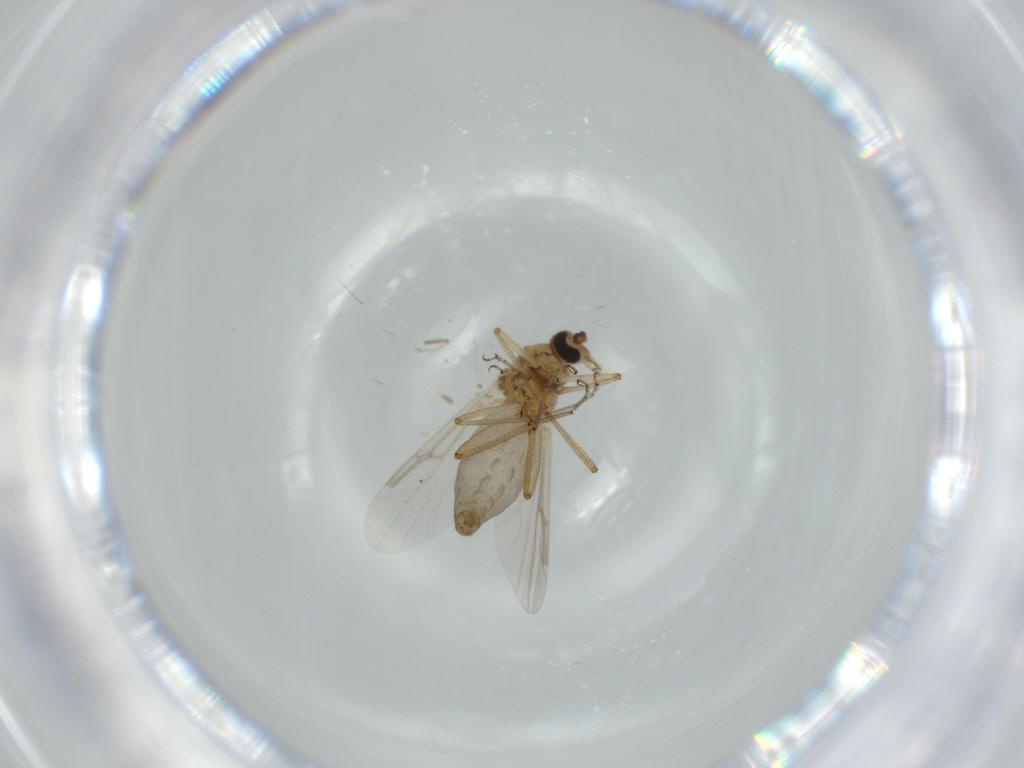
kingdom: Animalia
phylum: Arthropoda
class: Insecta
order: Diptera
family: Ceratopogonidae
